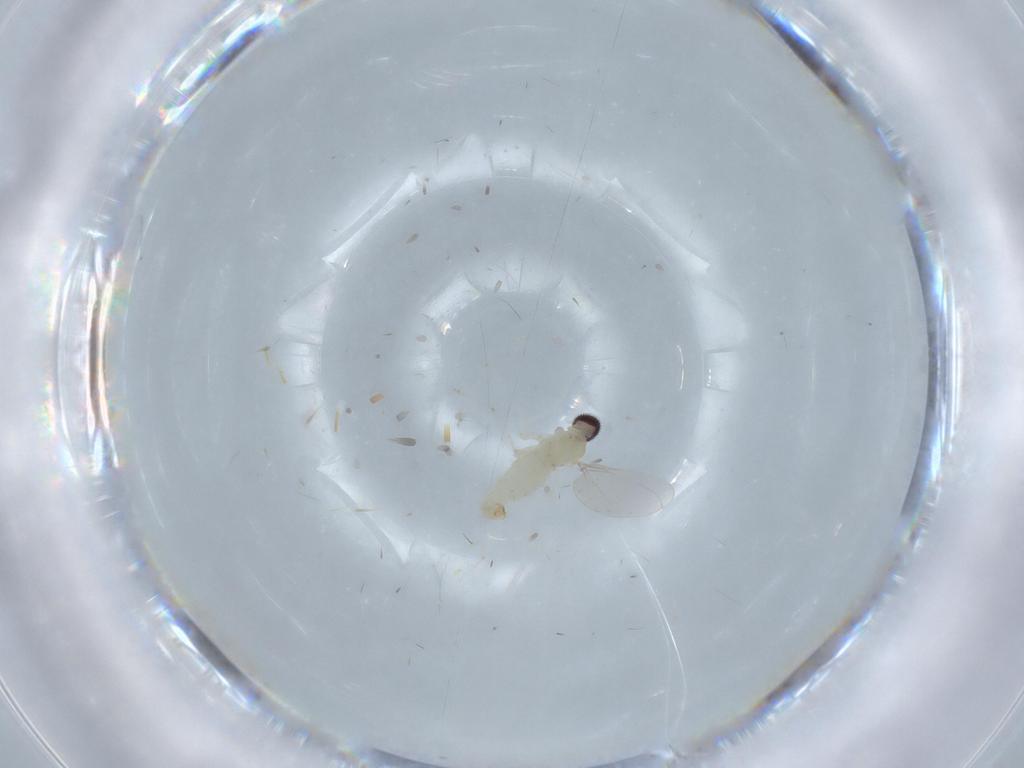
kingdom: Animalia
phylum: Arthropoda
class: Insecta
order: Diptera
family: Cecidomyiidae
